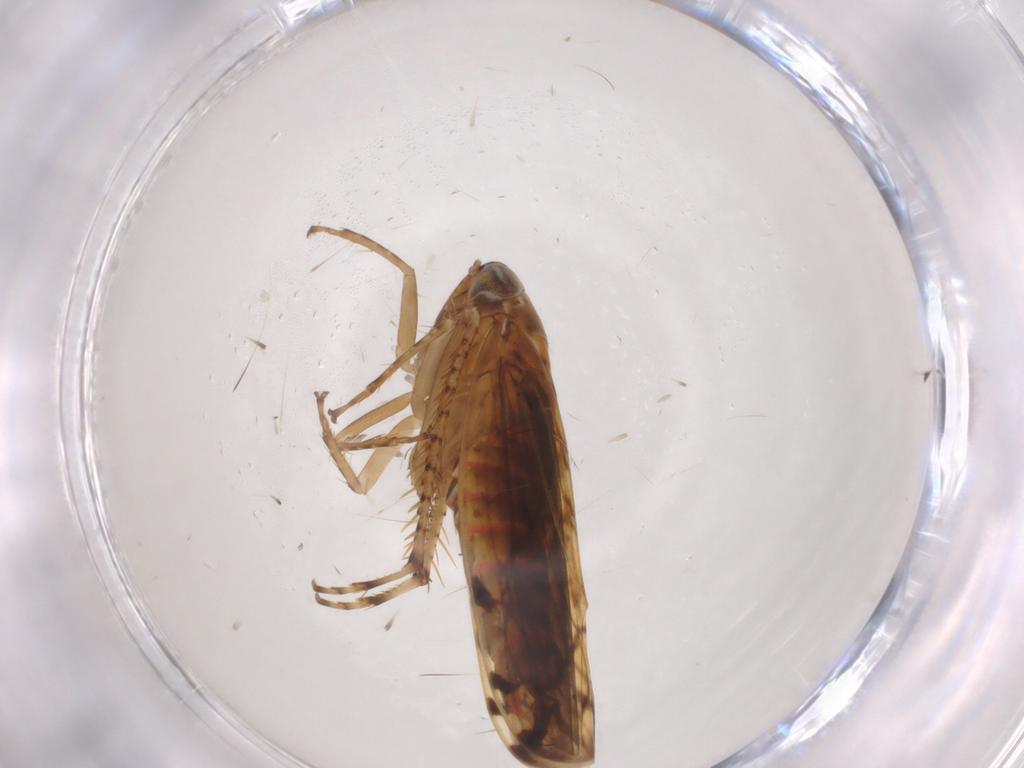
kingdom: Animalia
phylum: Arthropoda
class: Insecta
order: Hemiptera
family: Cicadellidae
